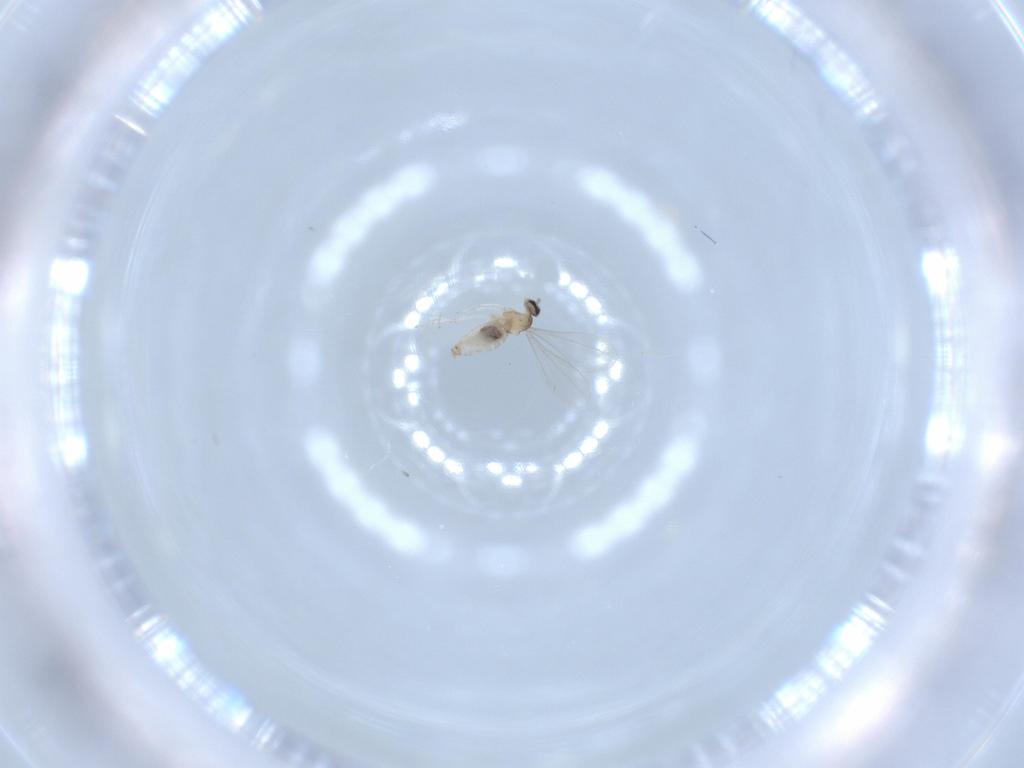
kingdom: Animalia
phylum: Arthropoda
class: Insecta
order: Diptera
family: Cecidomyiidae
